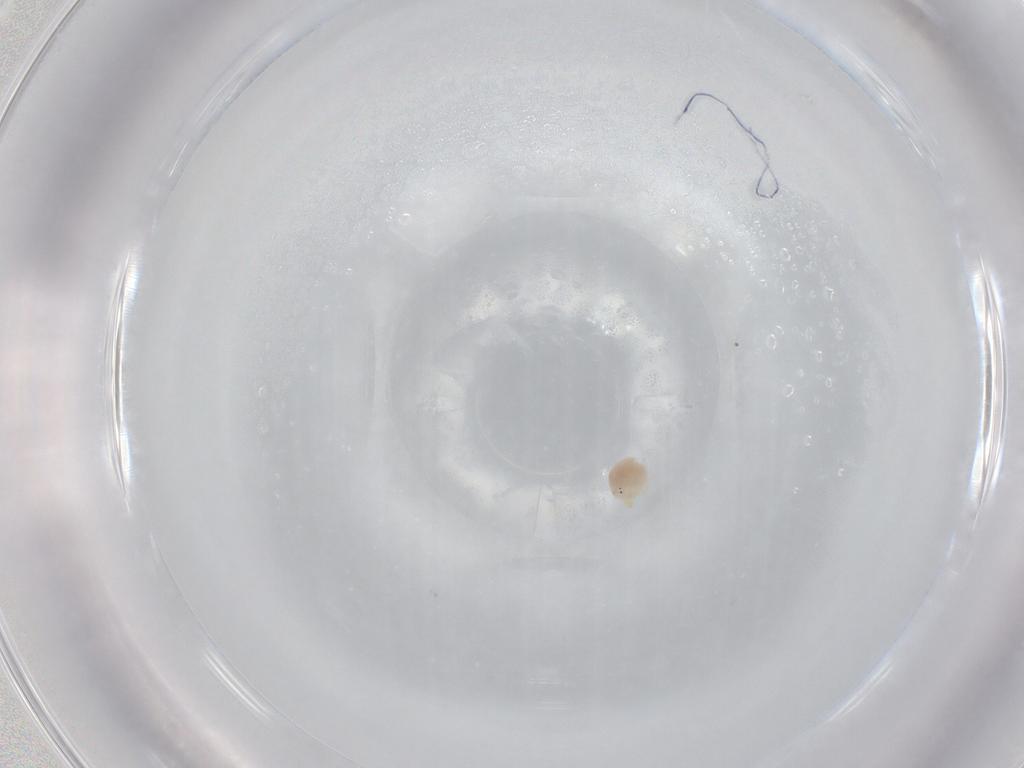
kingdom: Animalia
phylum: Arthropoda
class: Arachnida
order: Trombidiformes
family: Hydryphantidae
